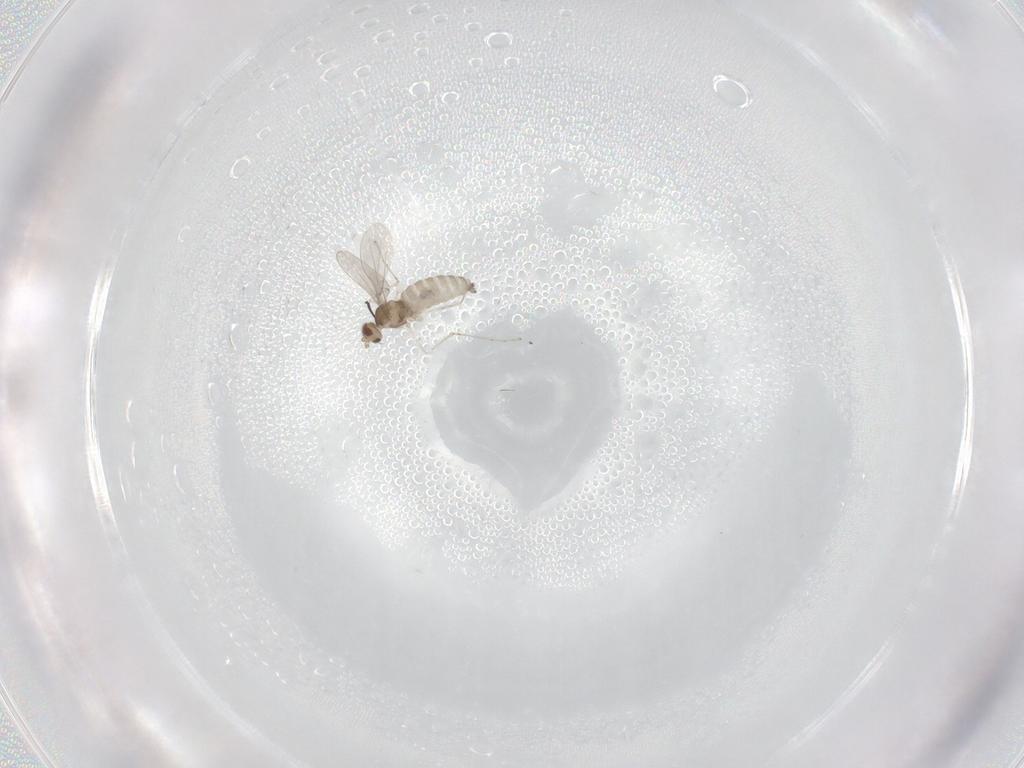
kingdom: Animalia
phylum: Arthropoda
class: Insecta
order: Diptera
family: Cecidomyiidae
